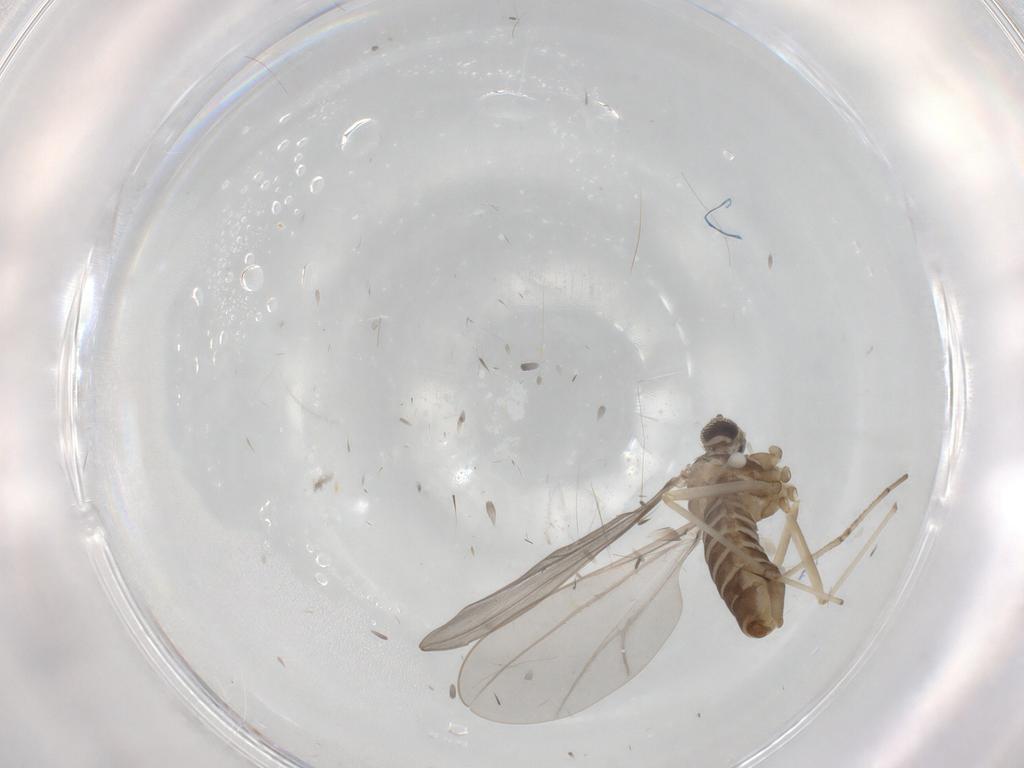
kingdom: Animalia
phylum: Arthropoda
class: Insecta
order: Diptera
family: Cecidomyiidae
